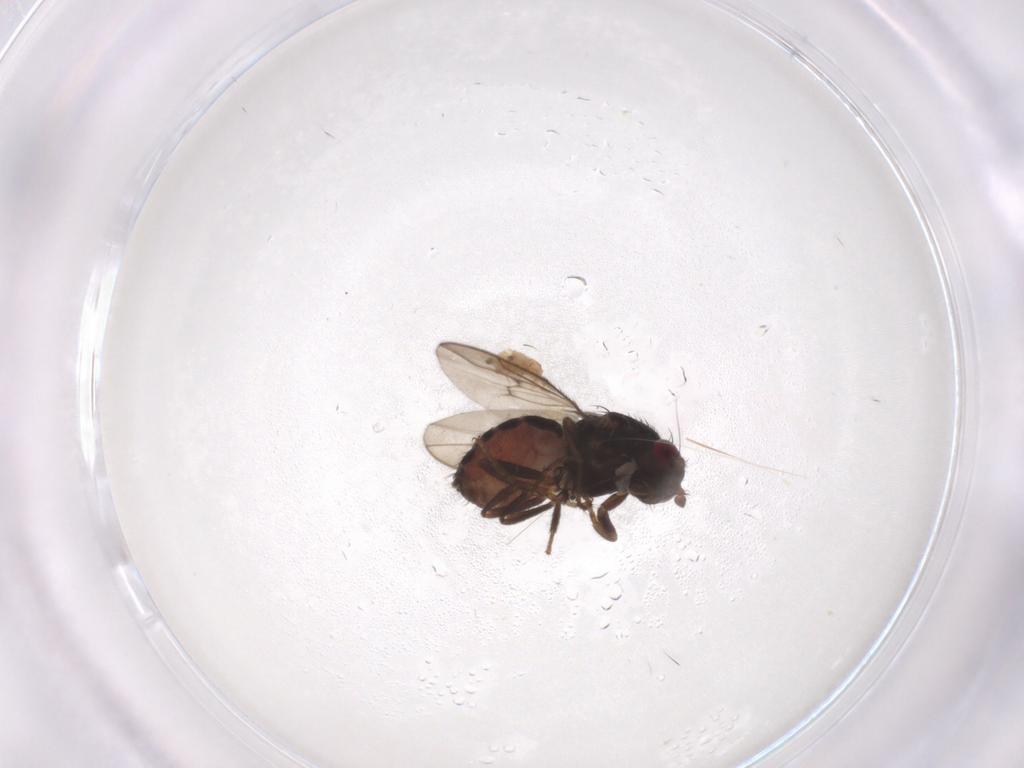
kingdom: Animalia
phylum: Arthropoda
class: Insecta
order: Diptera
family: Sphaeroceridae
